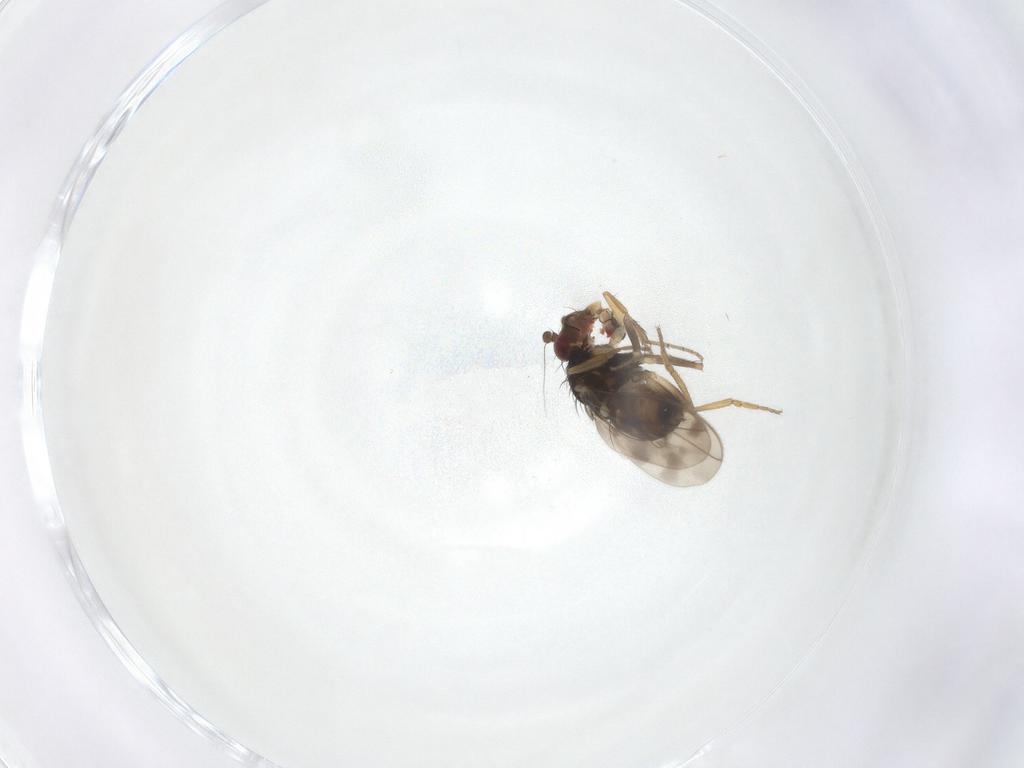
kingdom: Animalia
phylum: Arthropoda
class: Insecta
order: Diptera
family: Sphaeroceridae
